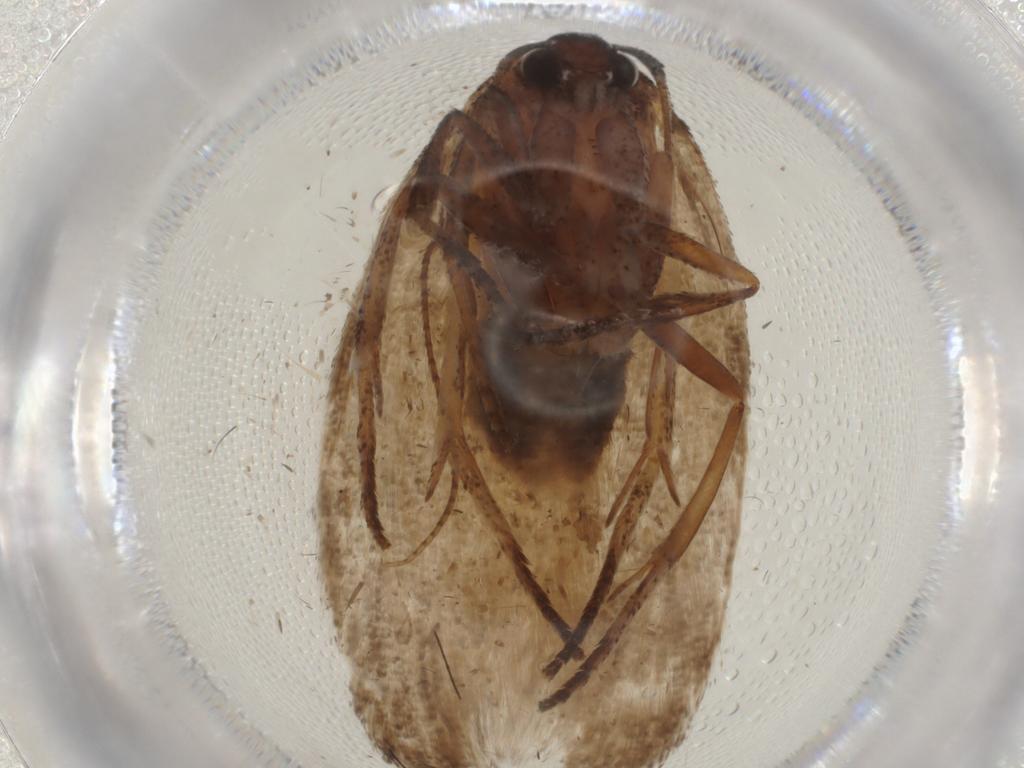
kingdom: Animalia
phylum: Arthropoda
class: Insecta
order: Lepidoptera
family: Cosmopterigidae
